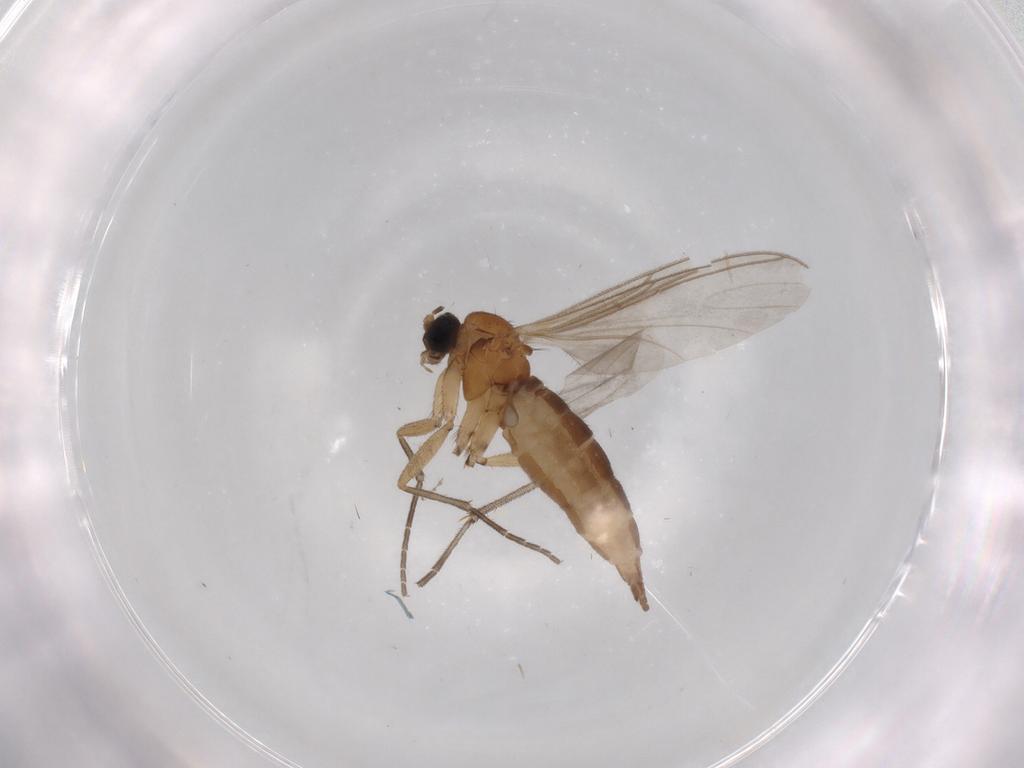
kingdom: Animalia
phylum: Arthropoda
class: Insecta
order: Diptera
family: Sciaridae
